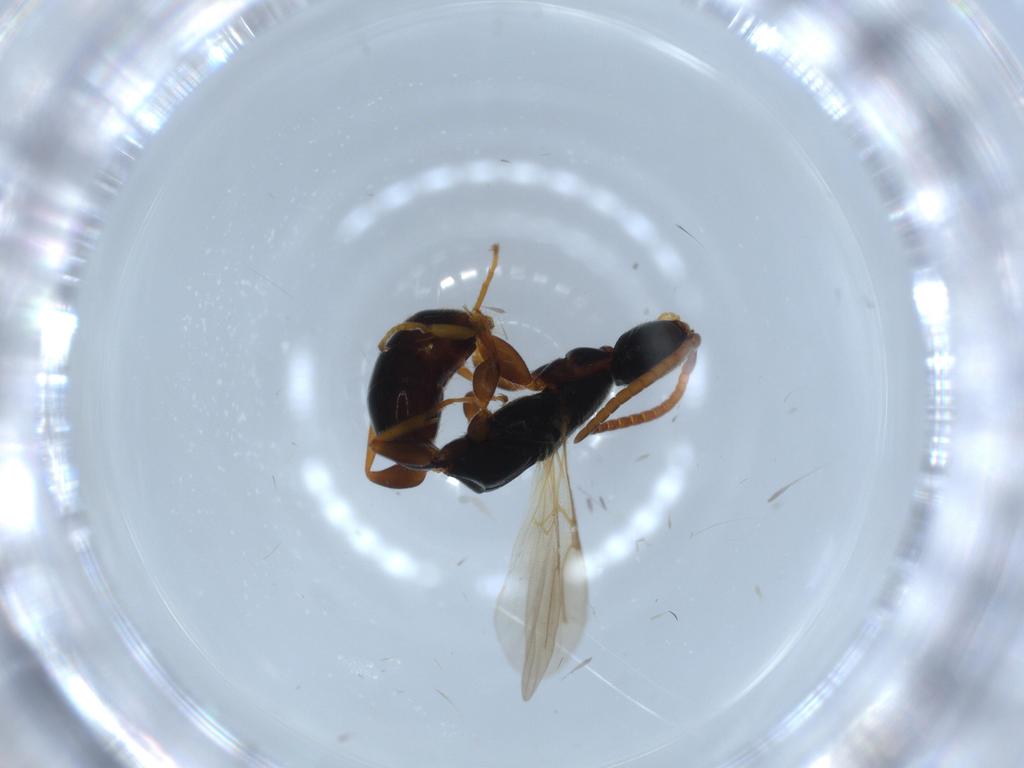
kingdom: Animalia
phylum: Arthropoda
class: Insecta
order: Hymenoptera
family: Bethylidae
